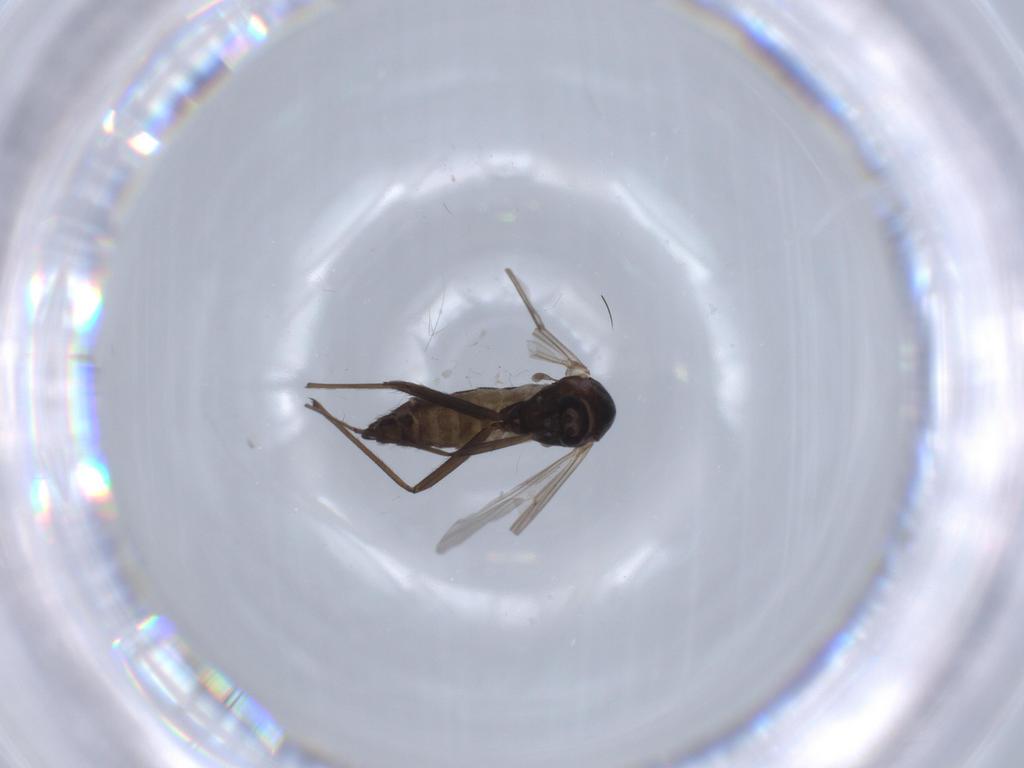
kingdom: Animalia
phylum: Arthropoda
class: Insecta
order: Diptera
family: Chironomidae
